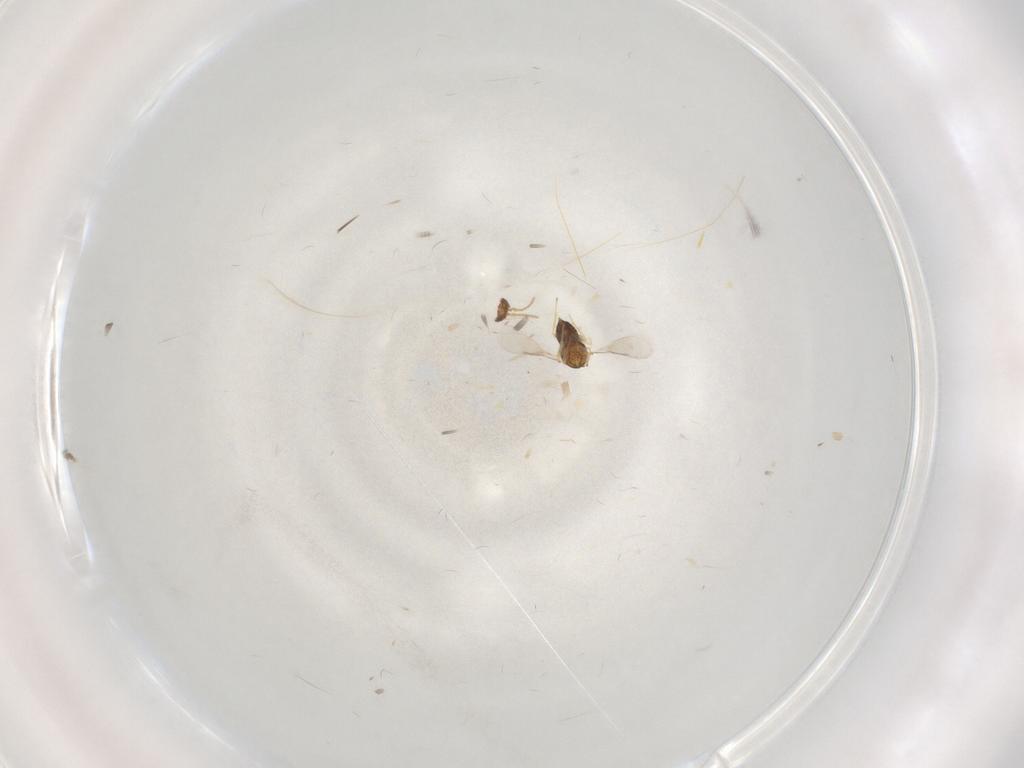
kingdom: Animalia
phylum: Arthropoda
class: Insecta
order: Hymenoptera
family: Aphelinidae
